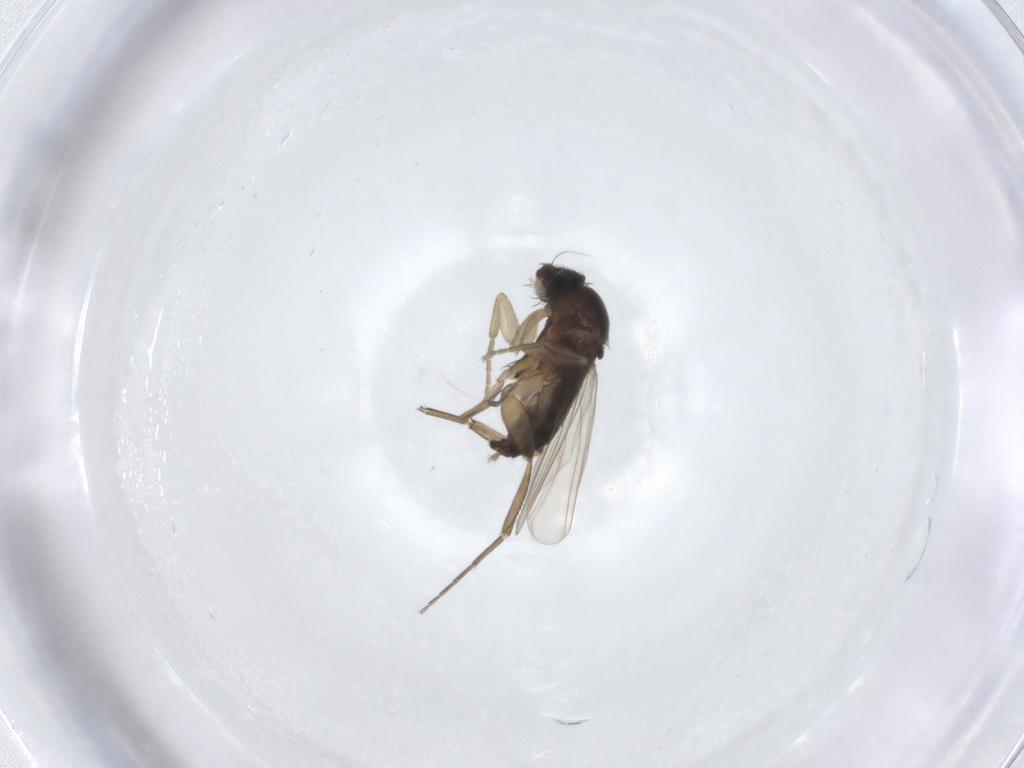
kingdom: Animalia
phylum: Arthropoda
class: Insecta
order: Diptera
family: Phoridae
